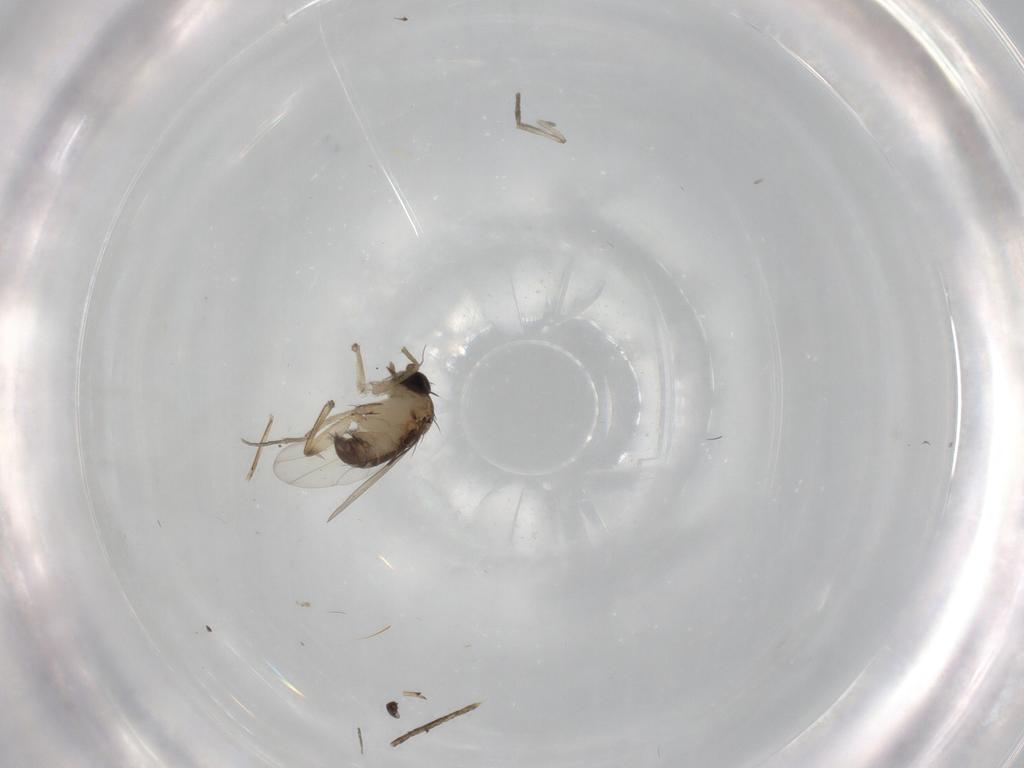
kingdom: Animalia
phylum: Arthropoda
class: Insecta
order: Diptera
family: Phoridae
